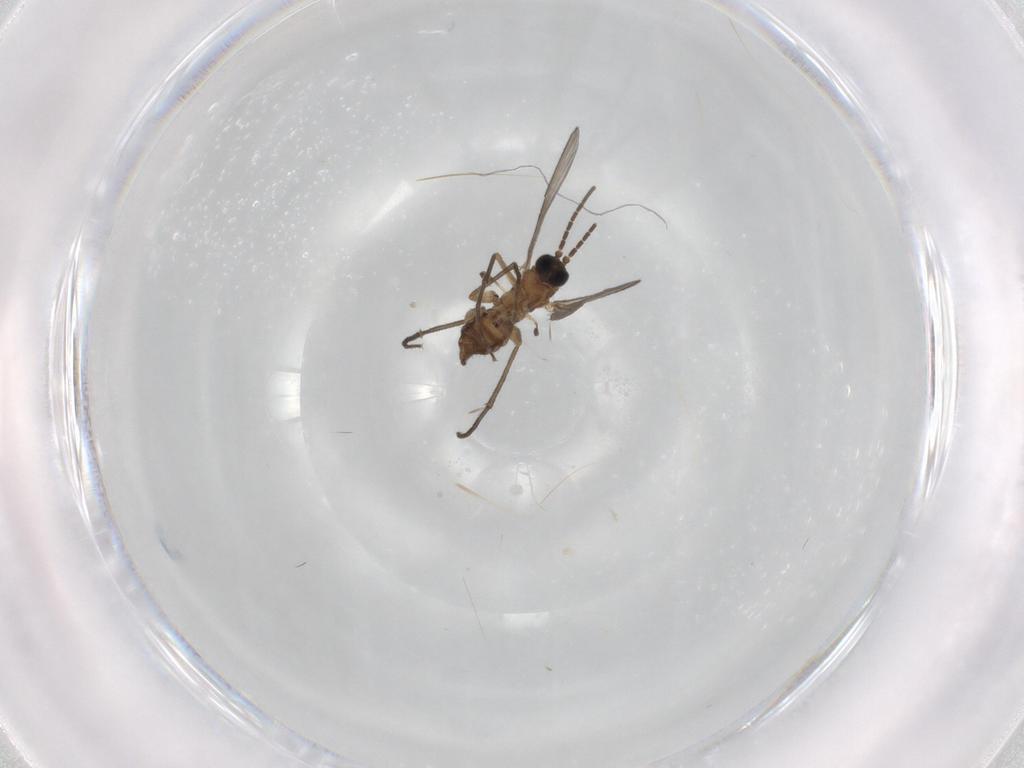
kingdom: Animalia
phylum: Arthropoda
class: Insecta
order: Diptera
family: Sciaridae
